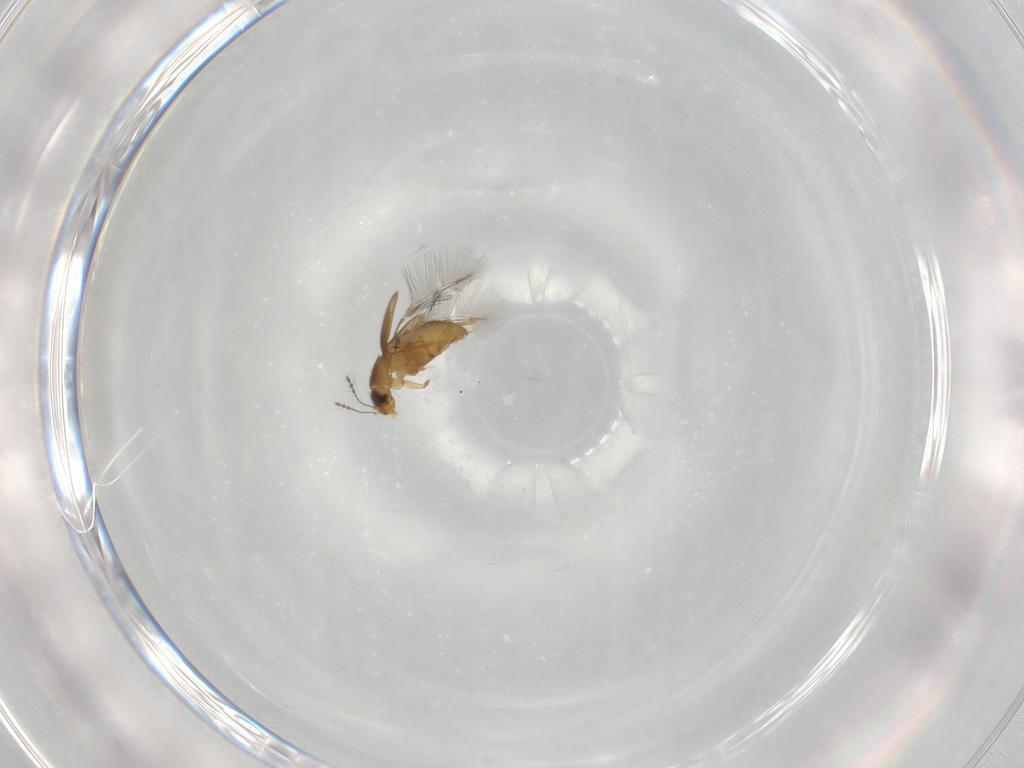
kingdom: Animalia
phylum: Arthropoda
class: Insecta
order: Coleoptera
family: Ptiliidae
